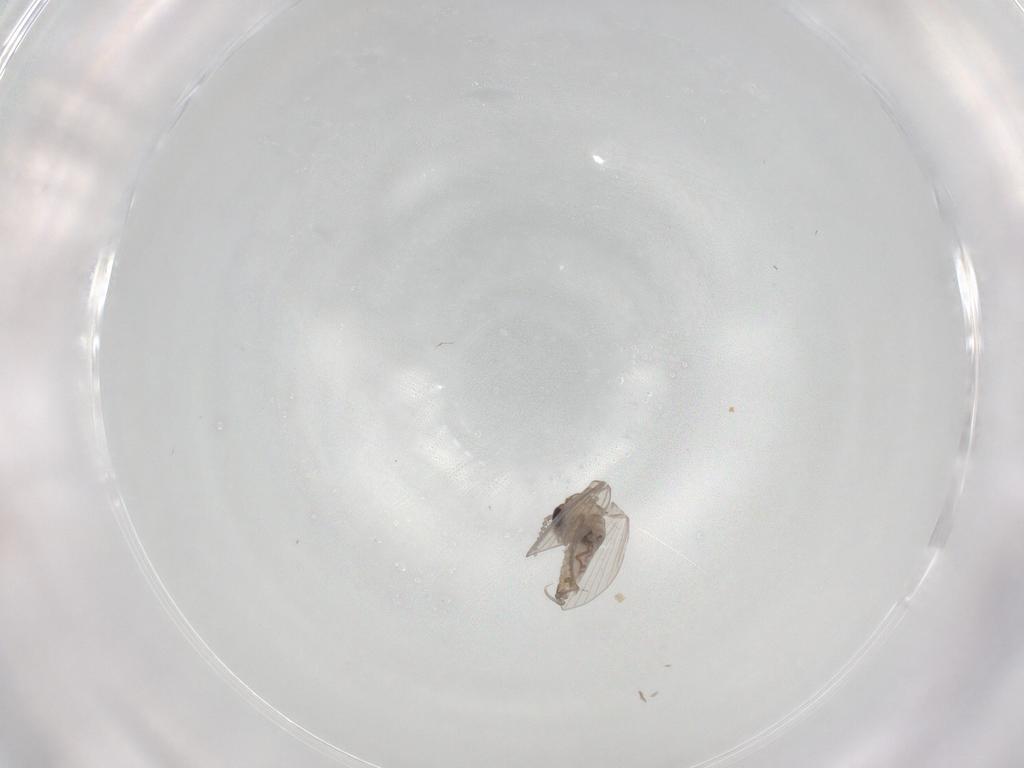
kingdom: Animalia
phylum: Arthropoda
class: Insecta
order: Diptera
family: Psychodidae
